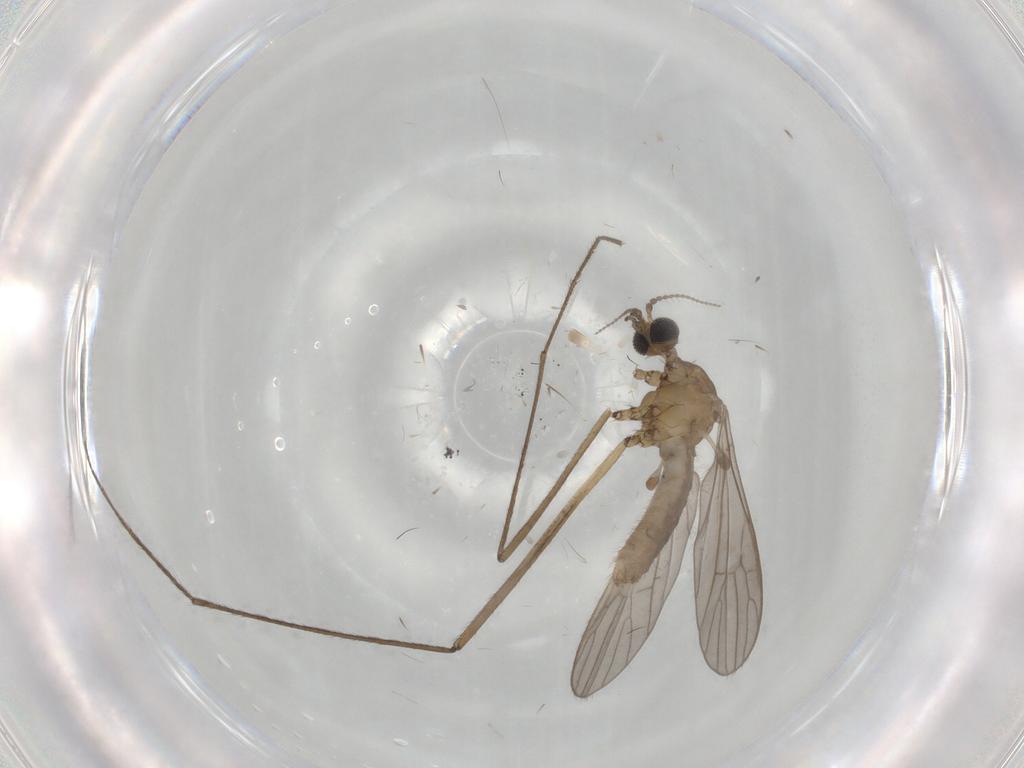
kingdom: Animalia
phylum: Arthropoda
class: Insecta
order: Diptera
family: Psychodidae
